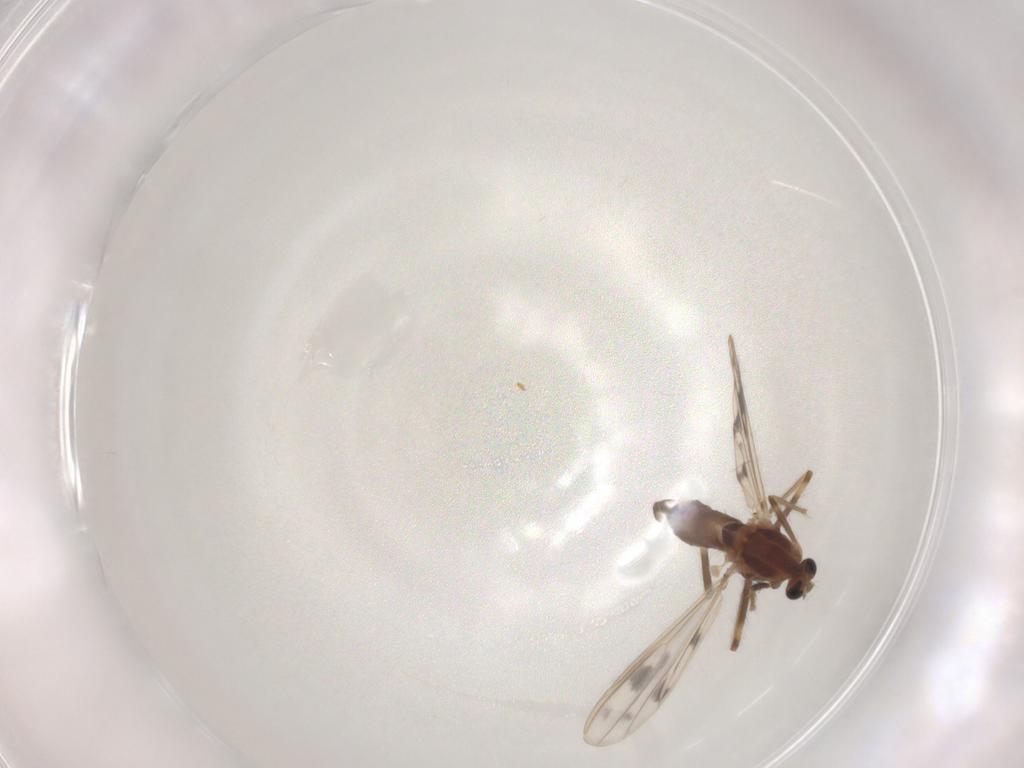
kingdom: Animalia
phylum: Arthropoda
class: Insecta
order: Diptera
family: Chironomidae
